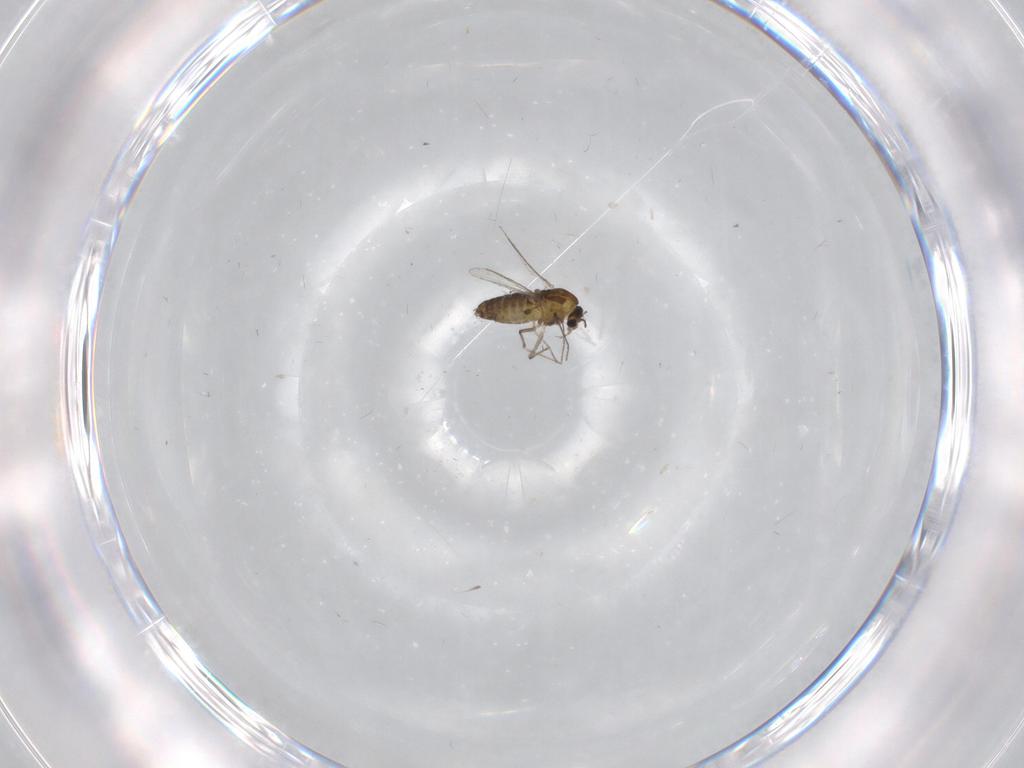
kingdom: Animalia
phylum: Arthropoda
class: Insecta
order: Diptera
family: Chironomidae
